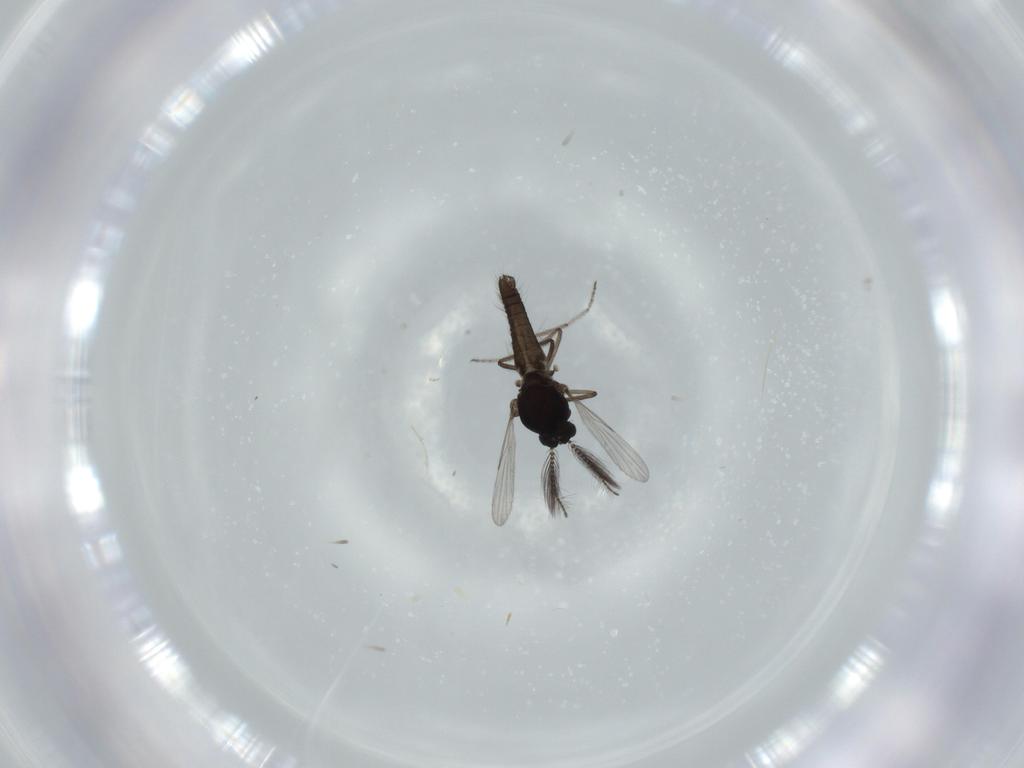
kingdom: Animalia
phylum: Arthropoda
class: Insecta
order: Diptera
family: Ceratopogonidae
